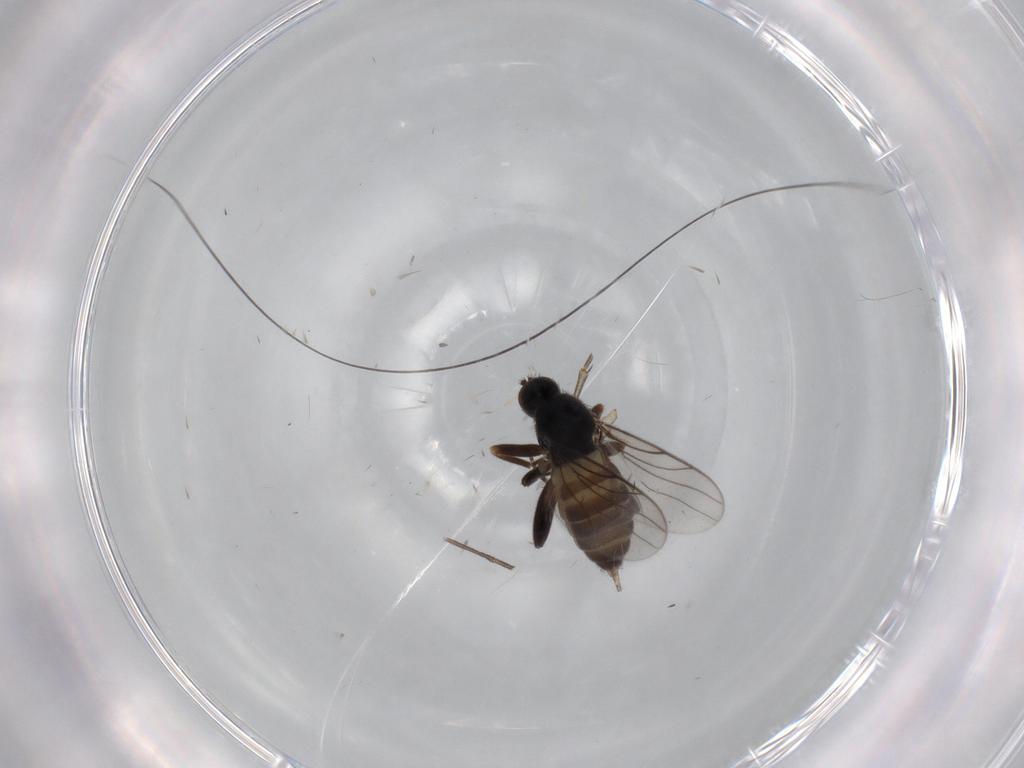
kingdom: Animalia
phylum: Arthropoda
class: Insecta
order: Diptera
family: Mycetophilidae
